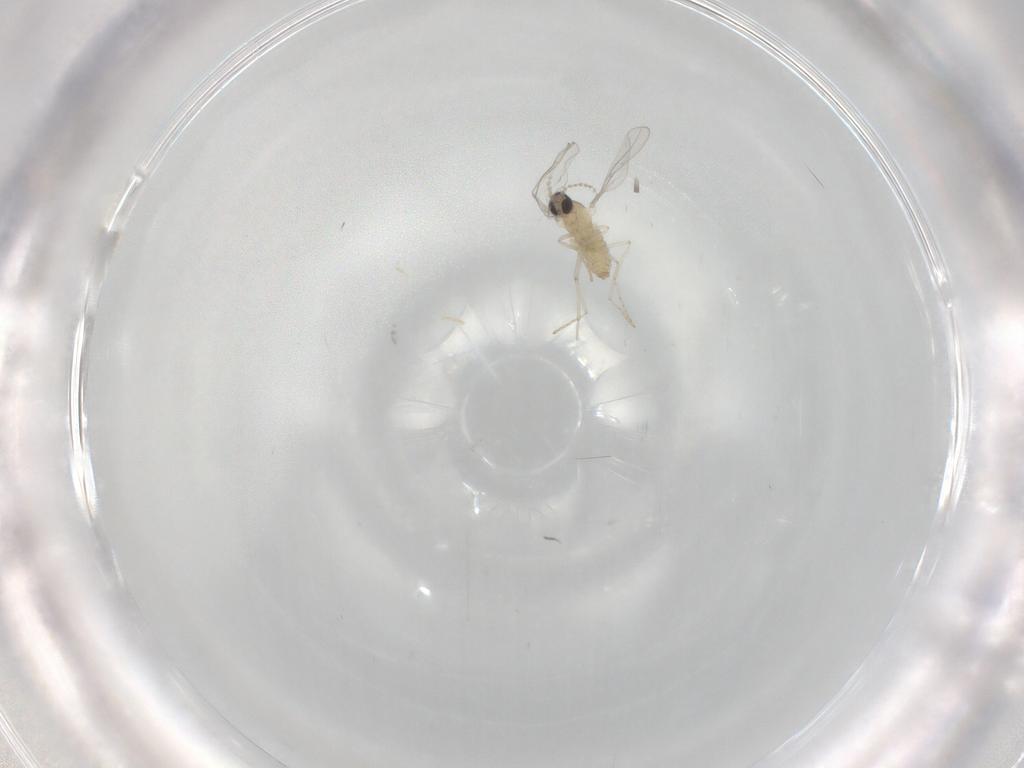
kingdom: Animalia
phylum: Arthropoda
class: Insecta
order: Diptera
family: Cecidomyiidae
